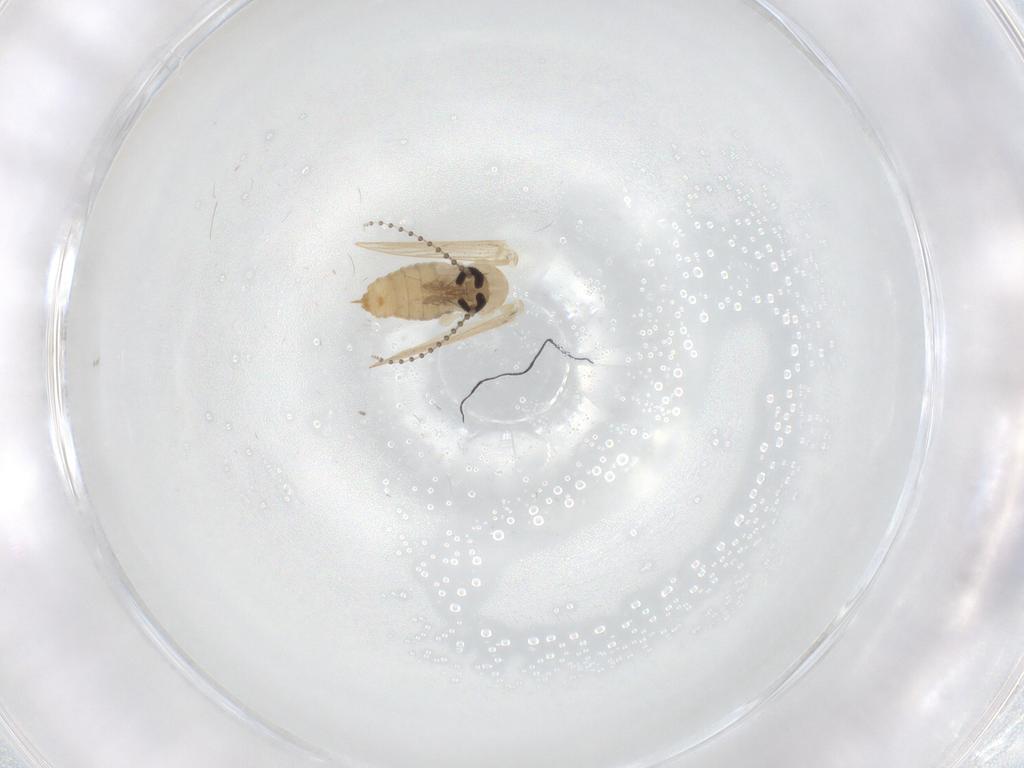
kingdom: Animalia
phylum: Arthropoda
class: Insecta
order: Diptera
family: Psychodidae
